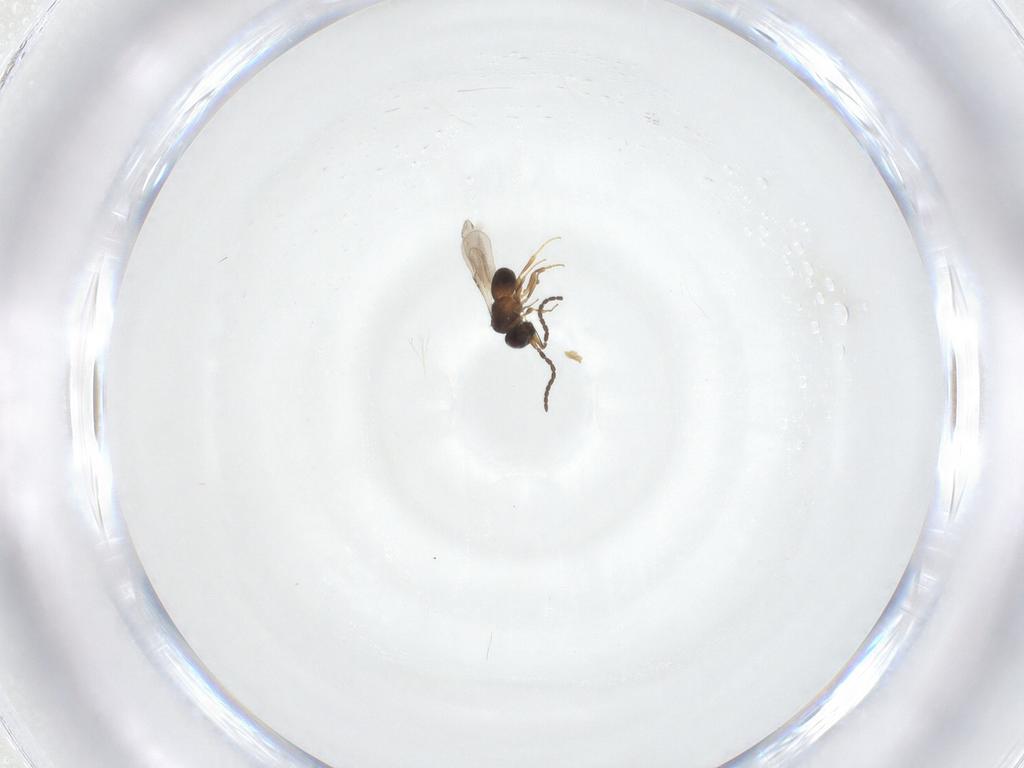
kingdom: Animalia
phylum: Arthropoda
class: Insecta
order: Hymenoptera
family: Ceraphronidae
